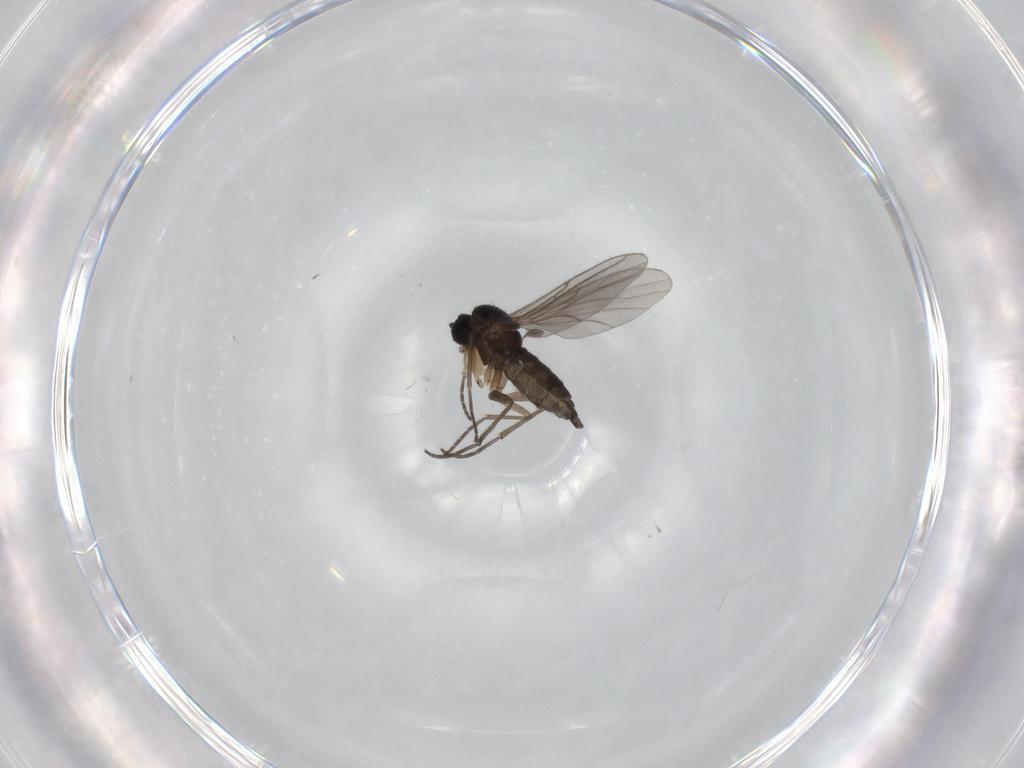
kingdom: Animalia
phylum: Arthropoda
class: Insecta
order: Diptera
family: Sciaridae
